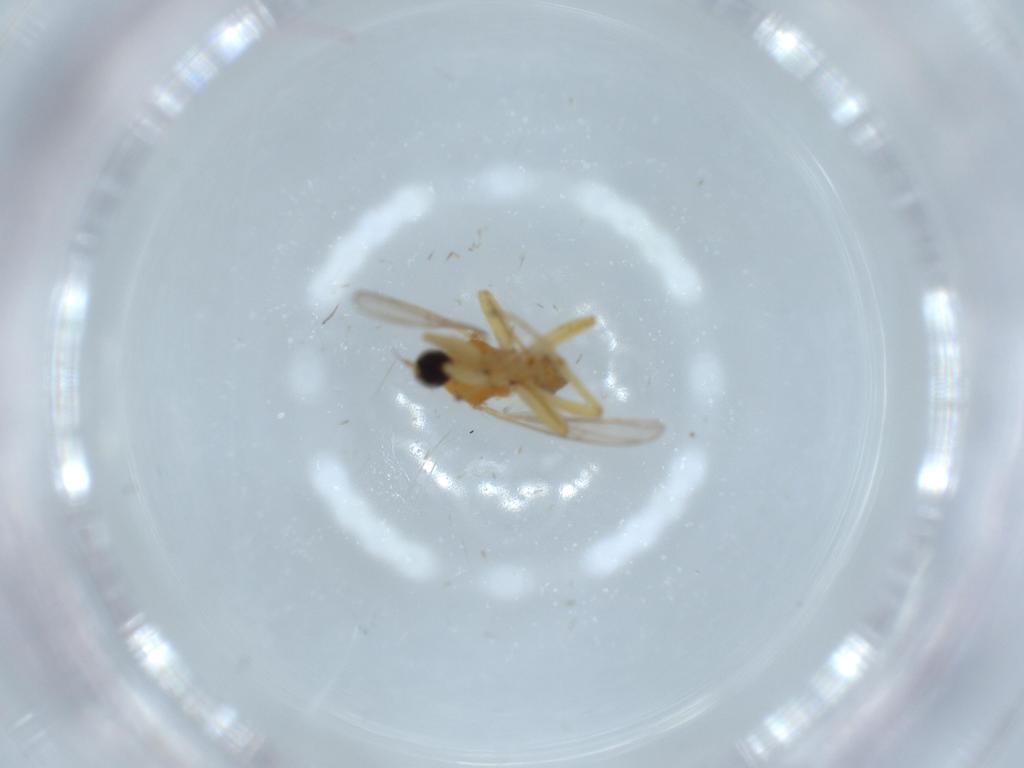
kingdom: Animalia
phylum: Arthropoda
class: Insecta
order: Diptera
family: Hybotidae
